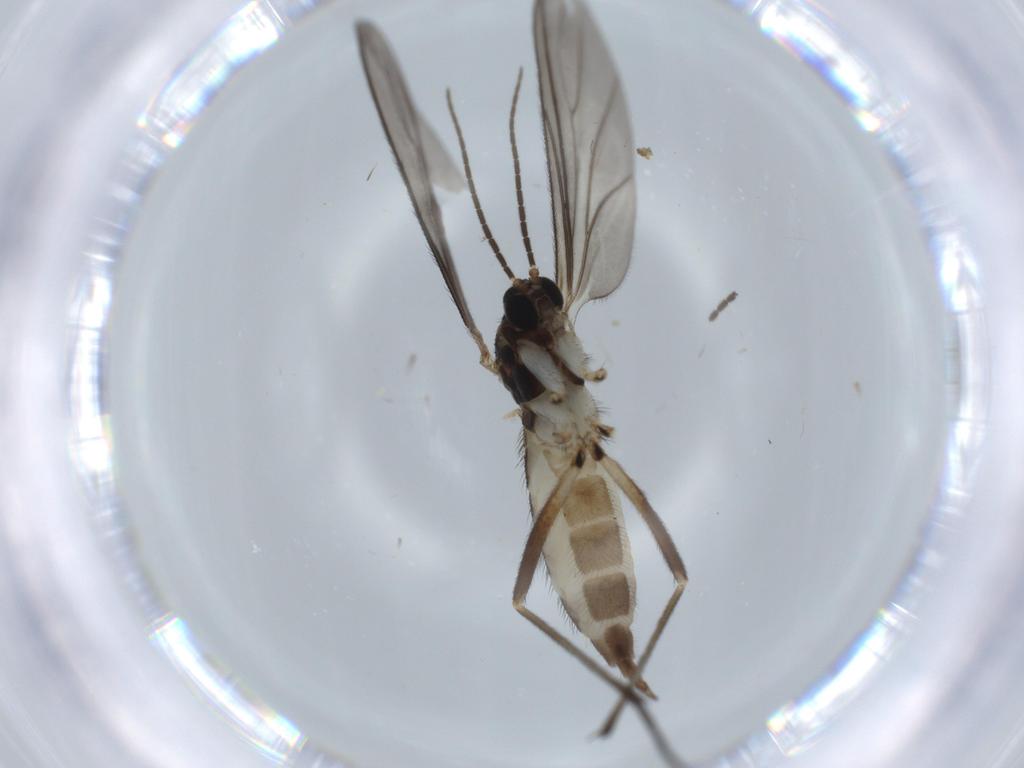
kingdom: Animalia
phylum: Arthropoda
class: Insecta
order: Diptera
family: Sciaridae
